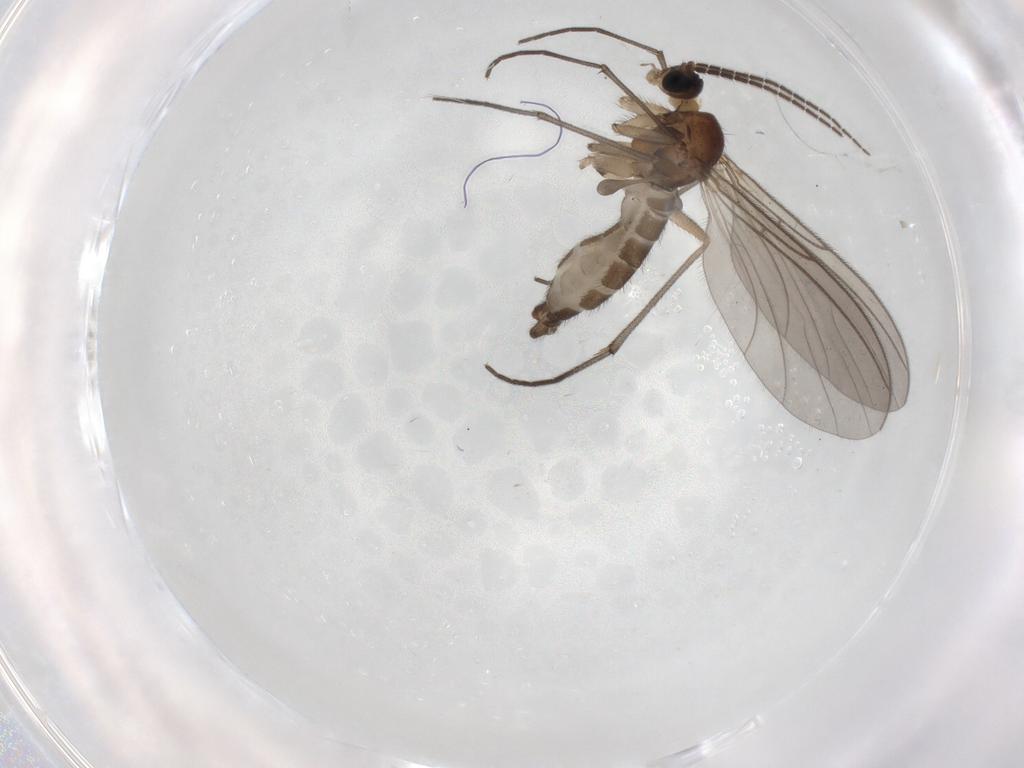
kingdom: Animalia
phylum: Arthropoda
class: Insecta
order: Diptera
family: Sciaridae
